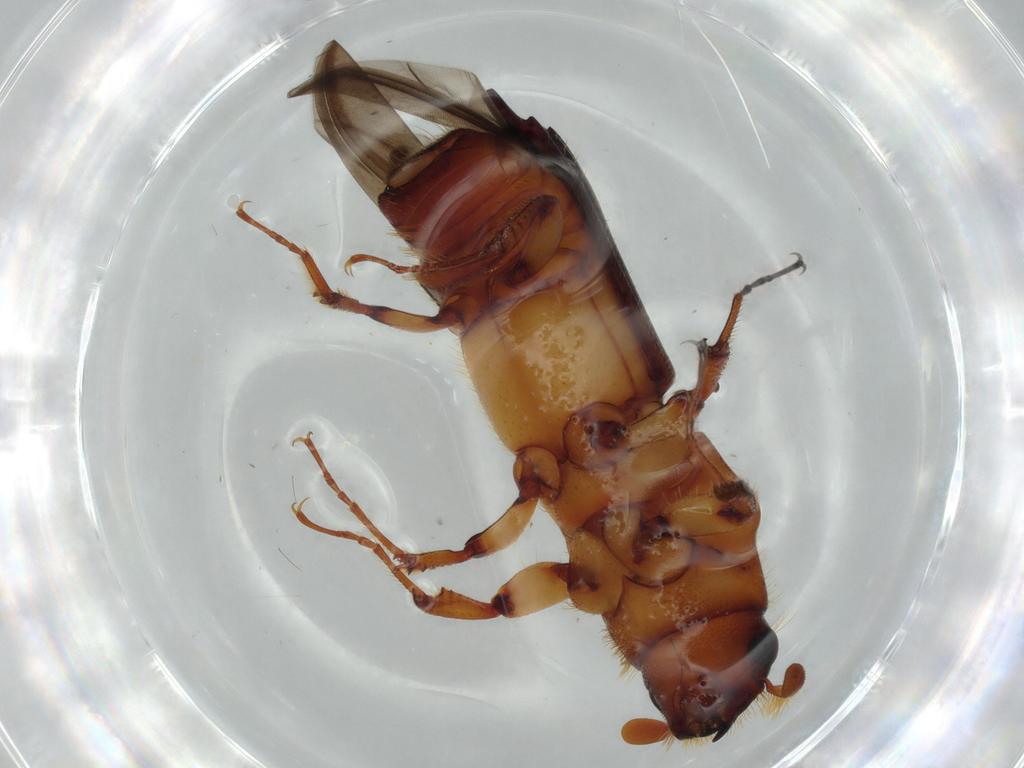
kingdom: Animalia
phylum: Arthropoda
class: Insecta
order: Coleoptera
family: Curculionidae
